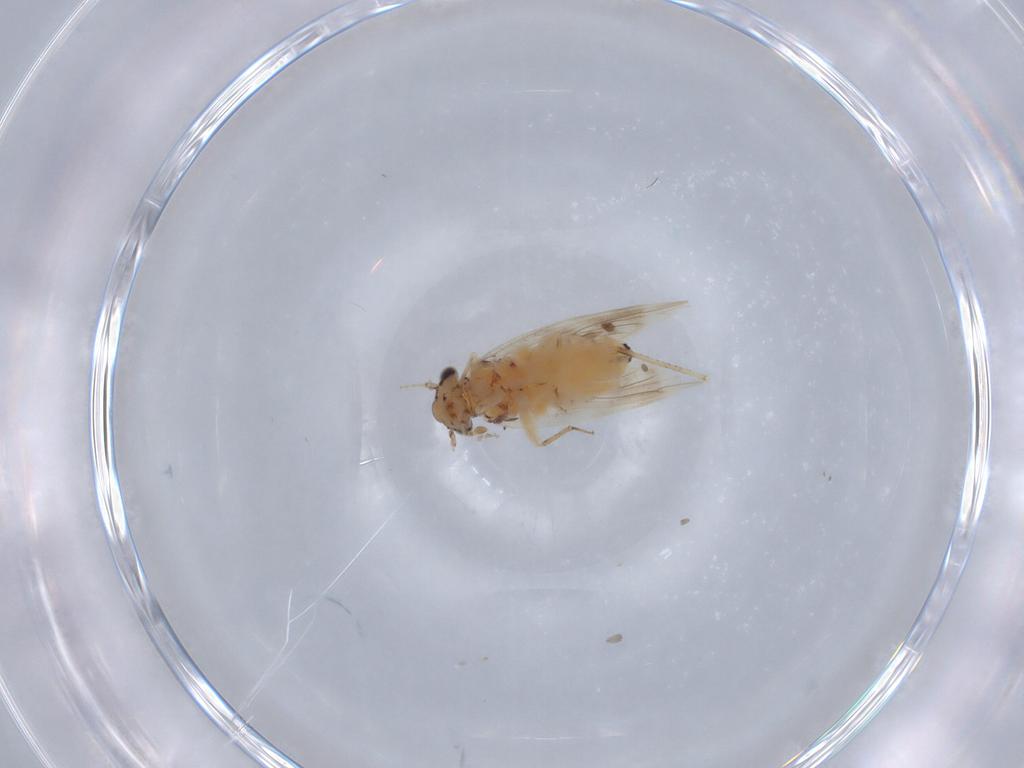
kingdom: Animalia
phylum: Arthropoda
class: Insecta
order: Psocodea
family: Lepidopsocidae
